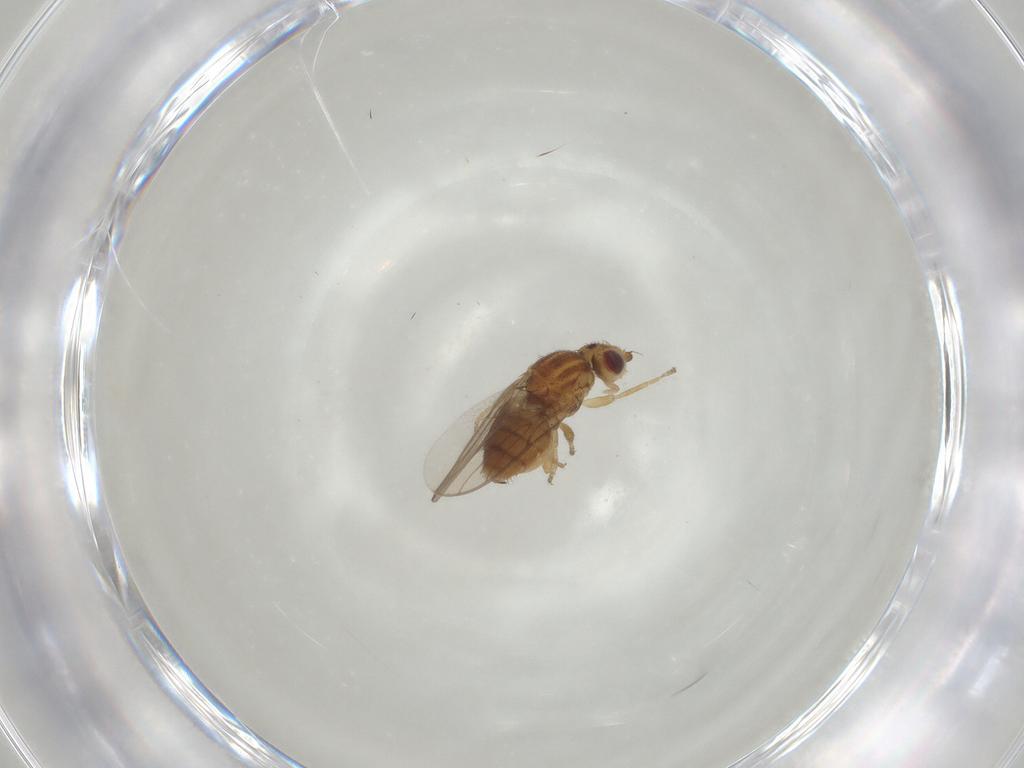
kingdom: Animalia
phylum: Arthropoda
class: Insecta
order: Diptera
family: Chloropidae
